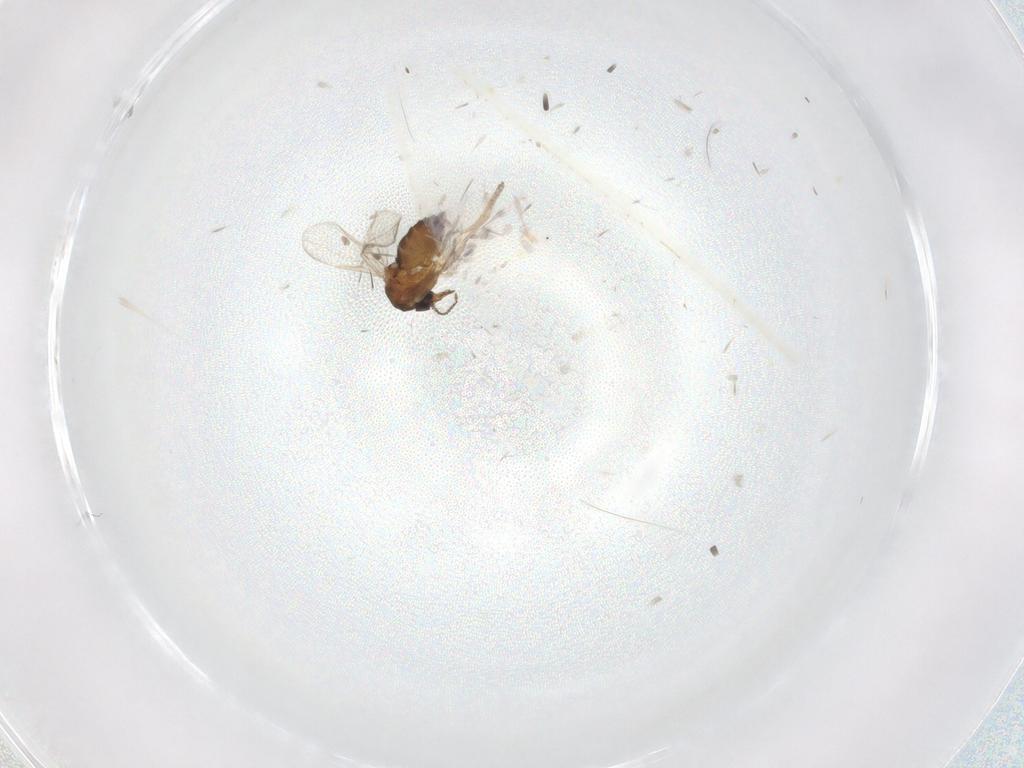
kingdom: Animalia
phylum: Arthropoda
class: Insecta
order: Diptera
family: Ceratopogonidae
